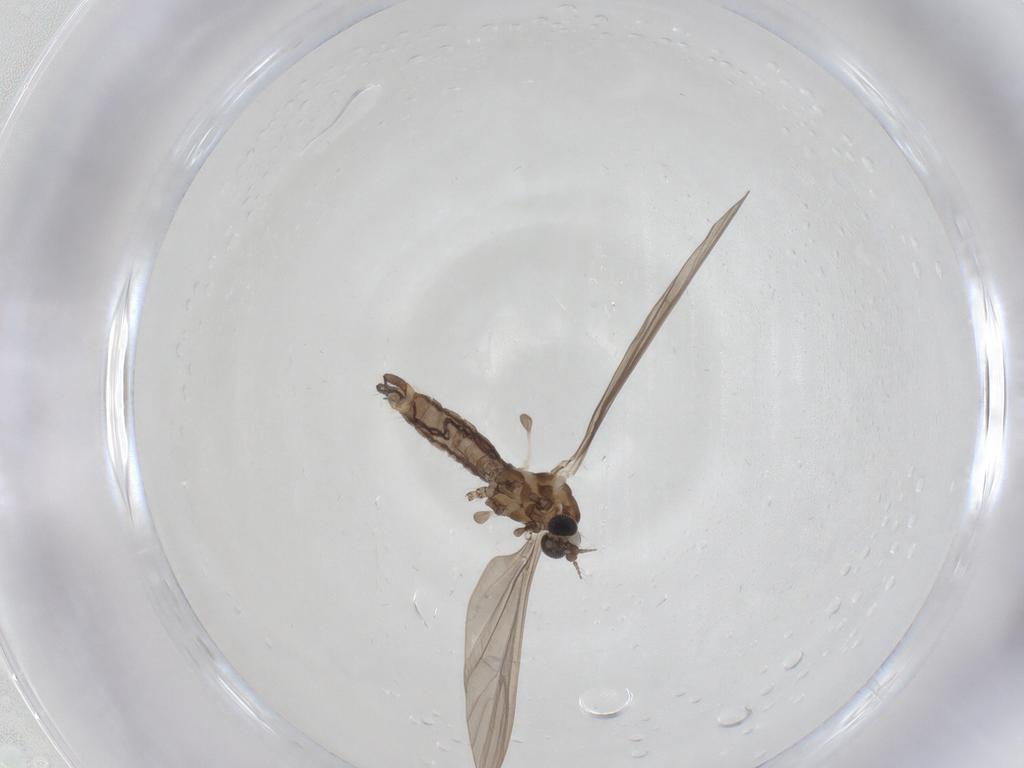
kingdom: Animalia
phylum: Arthropoda
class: Insecta
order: Diptera
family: Limoniidae
